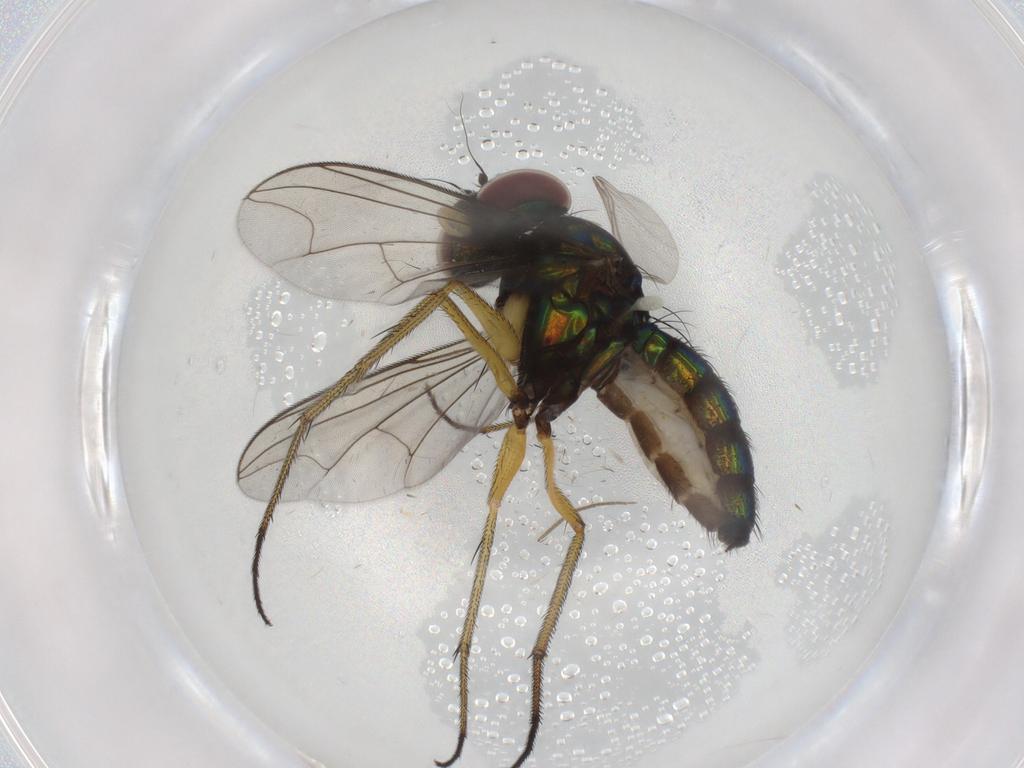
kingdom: Animalia
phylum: Arthropoda
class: Insecta
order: Diptera
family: Dolichopodidae
